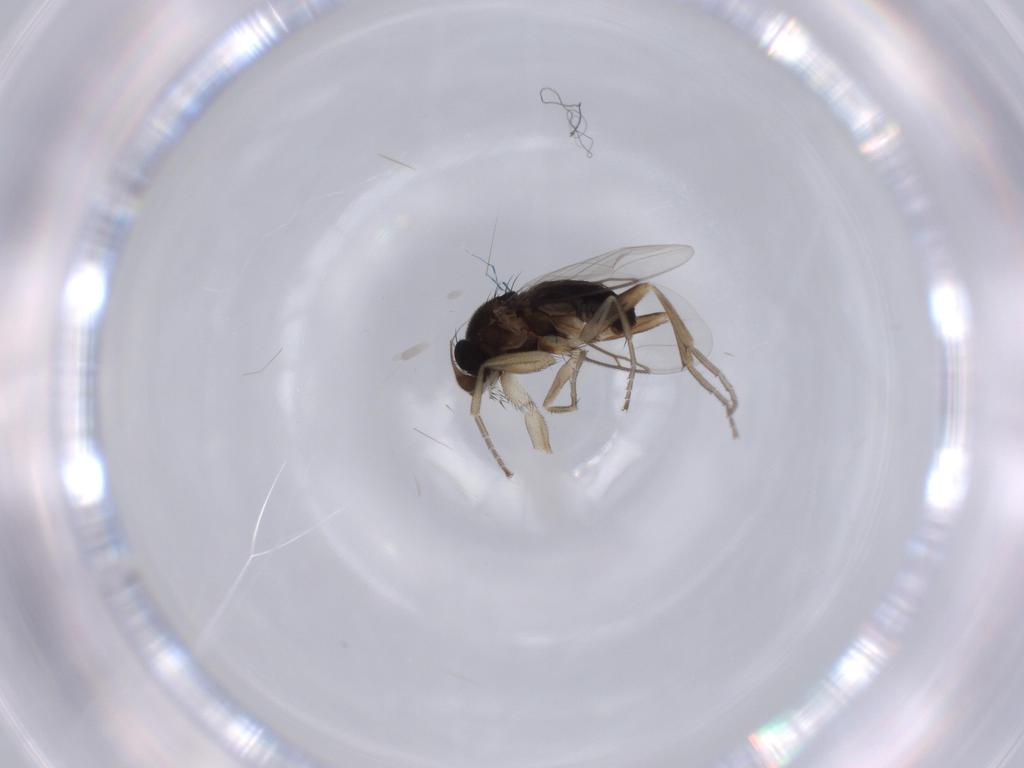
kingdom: Animalia
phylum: Arthropoda
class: Insecta
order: Diptera
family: Phoridae
